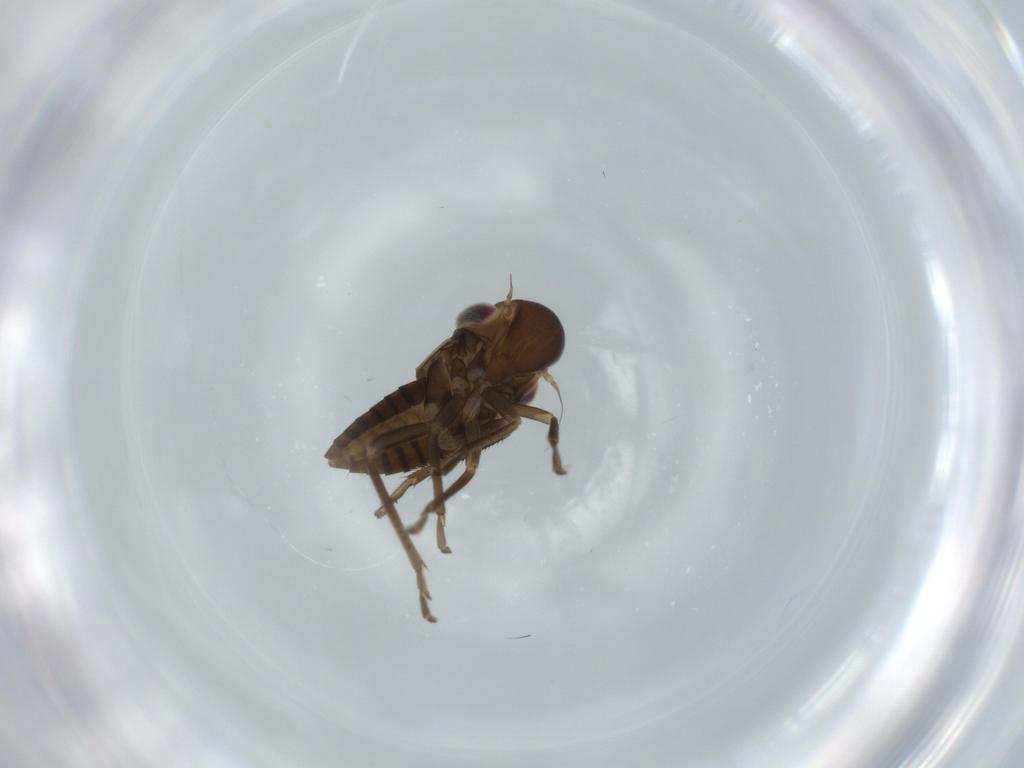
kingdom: Animalia
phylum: Arthropoda
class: Insecta
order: Hemiptera
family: Cicadellidae
